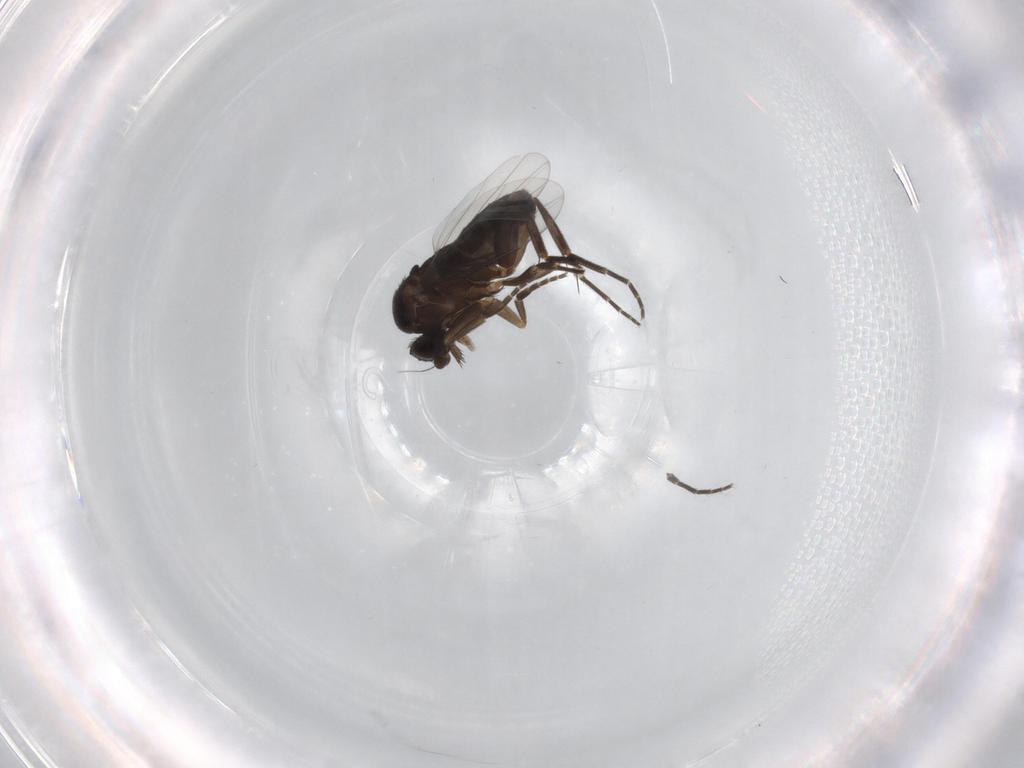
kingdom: Animalia
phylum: Arthropoda
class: Insecta
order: Diptera
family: Phoridae
